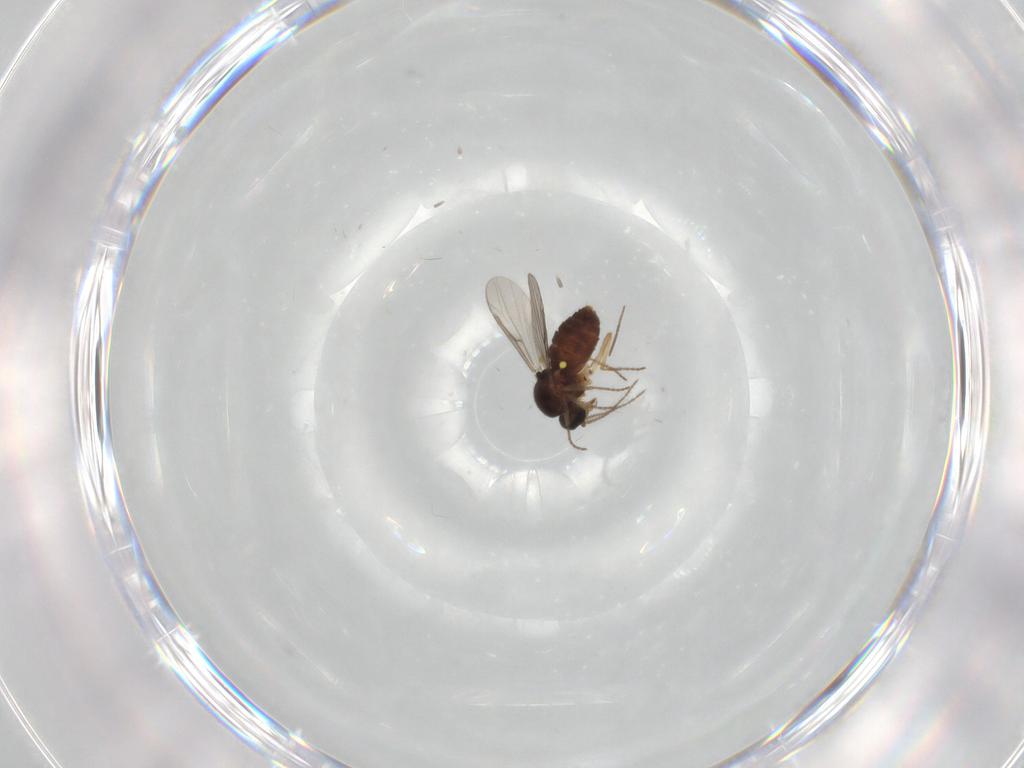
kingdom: Animalia
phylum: Arthropoda
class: Insecta
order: Diptera
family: Ceratopogonidae
